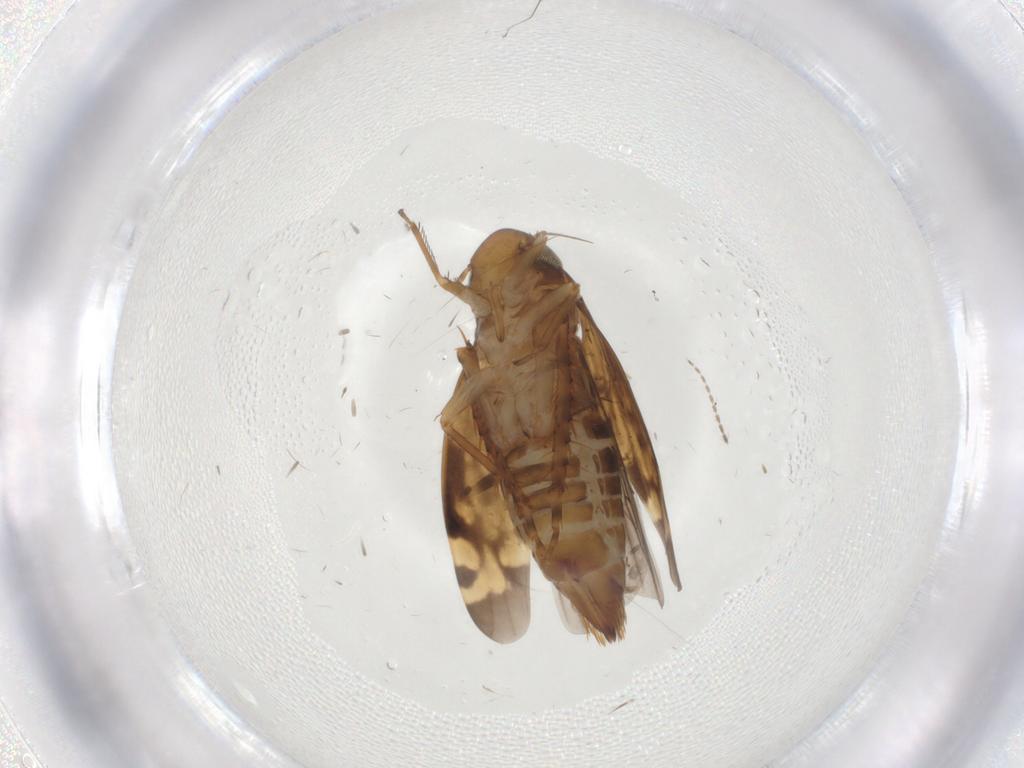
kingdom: Animalia
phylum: Arthropoda
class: Insecta
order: Hemiptera
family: Cicadellidae
